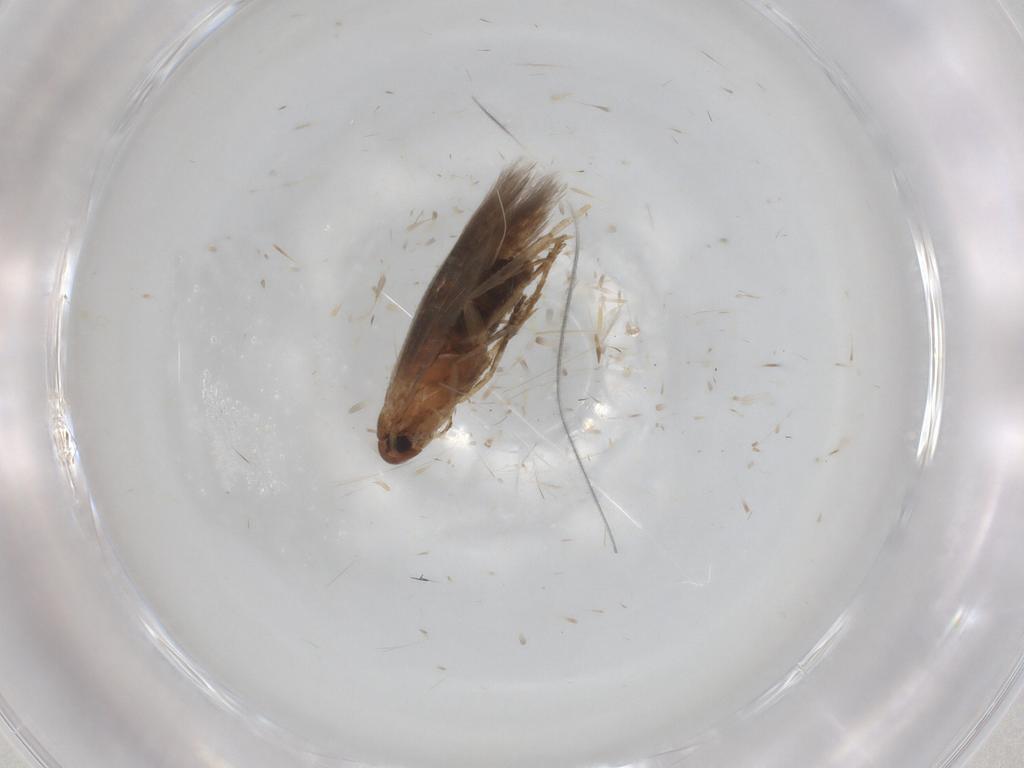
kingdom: Animalia
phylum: Arthropoda
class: Insecta
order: Lepidoptera
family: Cosmopterigidae
